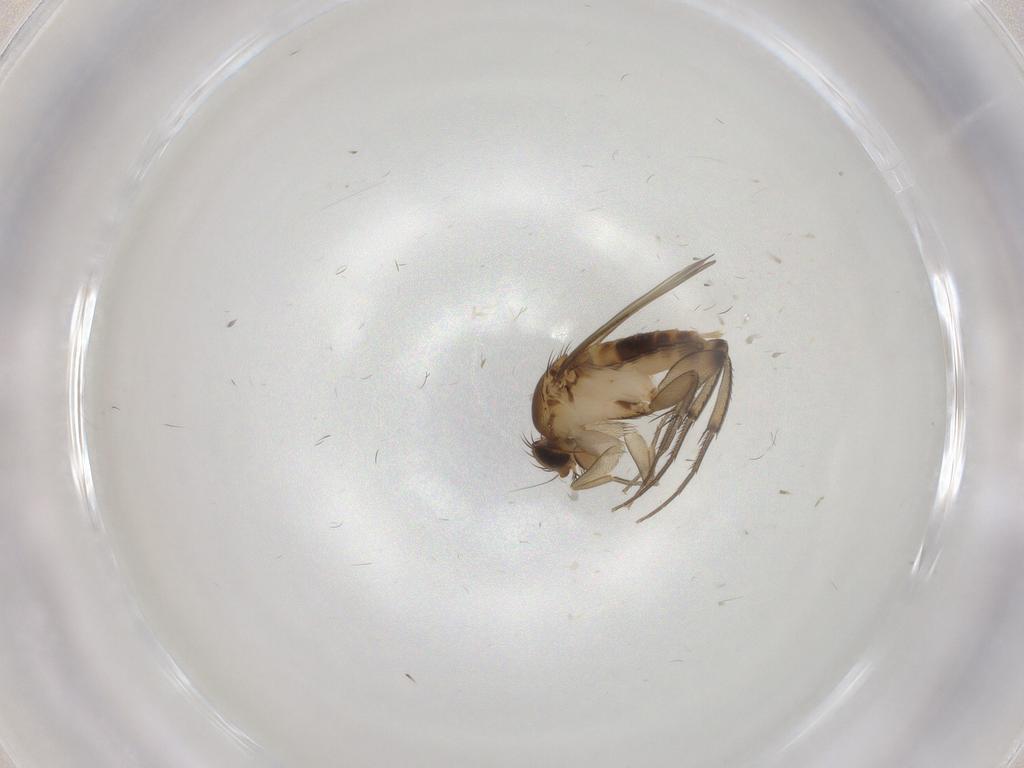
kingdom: Animalia
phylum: Arthropoda
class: Insecta
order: Diptera
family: Phoridae
